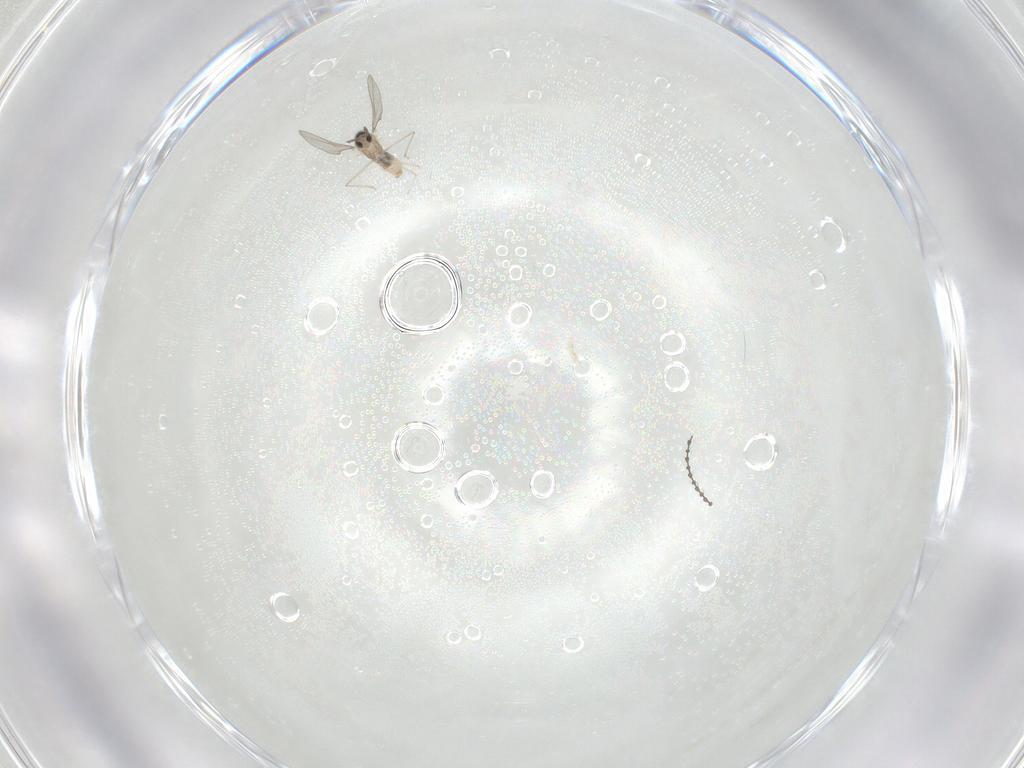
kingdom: Animalia
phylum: Arthropoda
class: Insecta
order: Diptera
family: Cecidomyiidae
